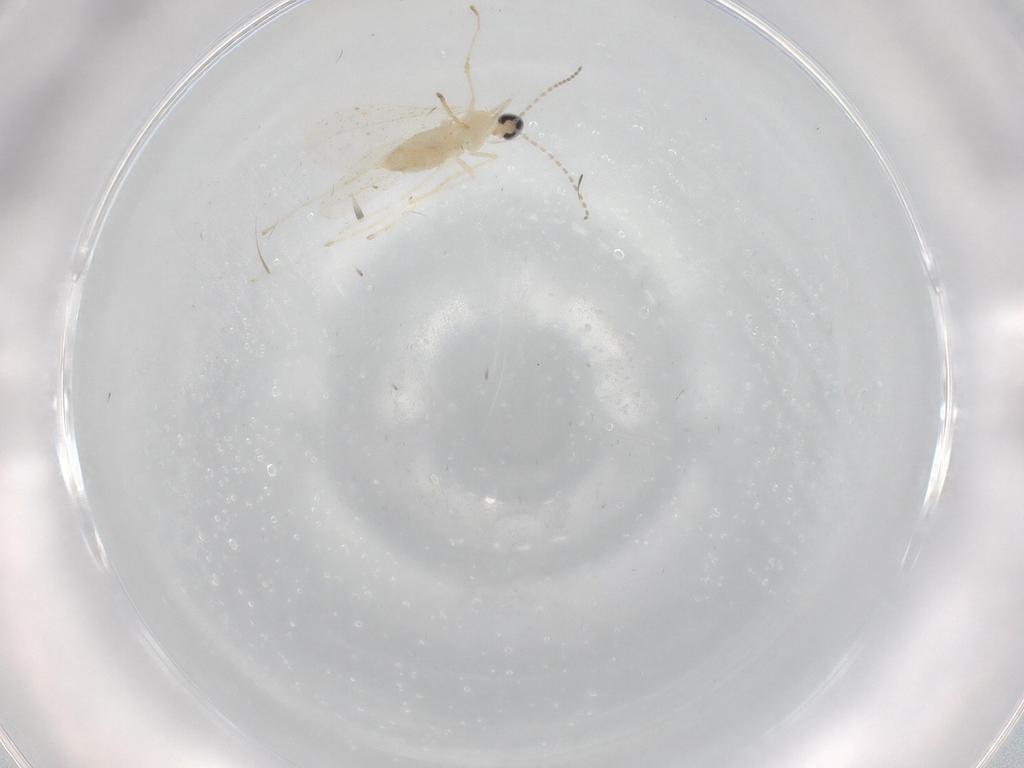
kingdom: Animalia
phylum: Arthropoda
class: Insecta
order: Diptera
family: Cecidomyiidae
